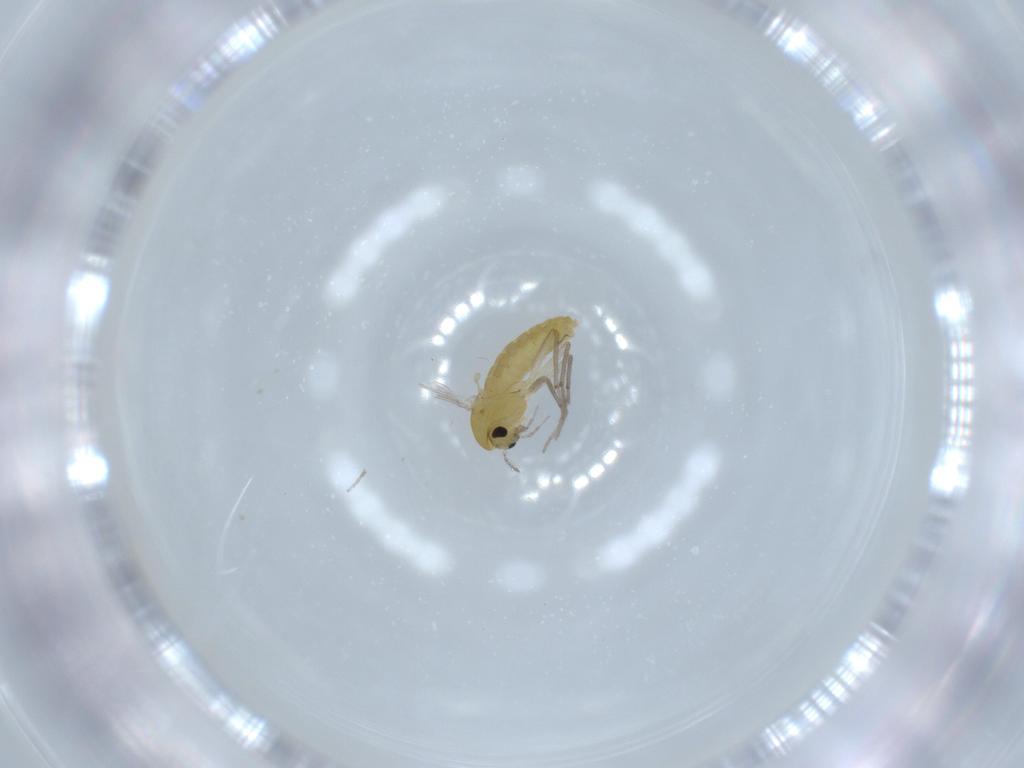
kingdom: Animalia
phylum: Arthropoda
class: Insecta
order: Diptera
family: Chironomidae
